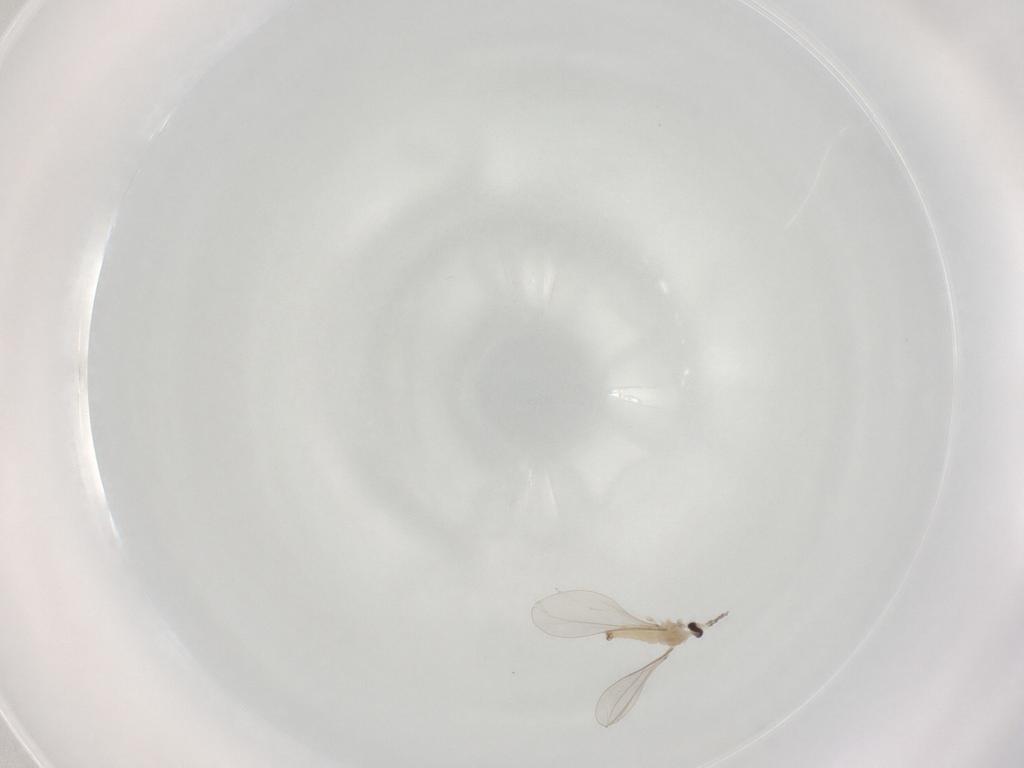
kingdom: Animalia
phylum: Arthropoda
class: Insecta
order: Diptera
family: Cecidomyiidae
